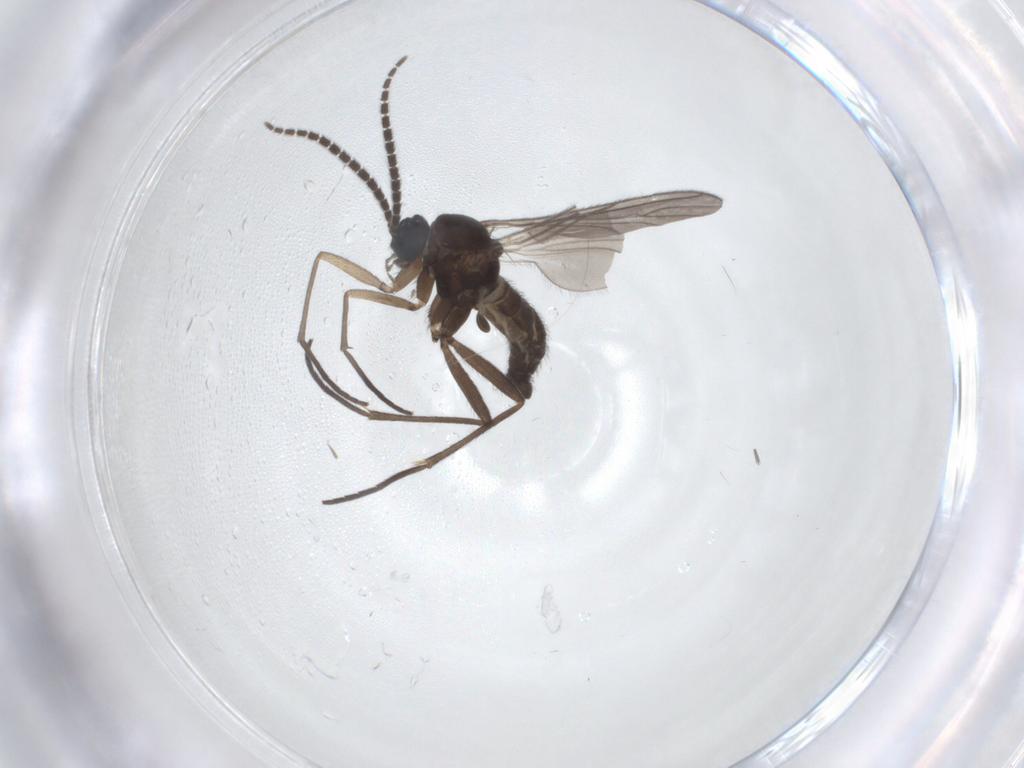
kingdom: Animalia
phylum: Arthropoda
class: Insecta
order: Diptera
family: Sciaridae
